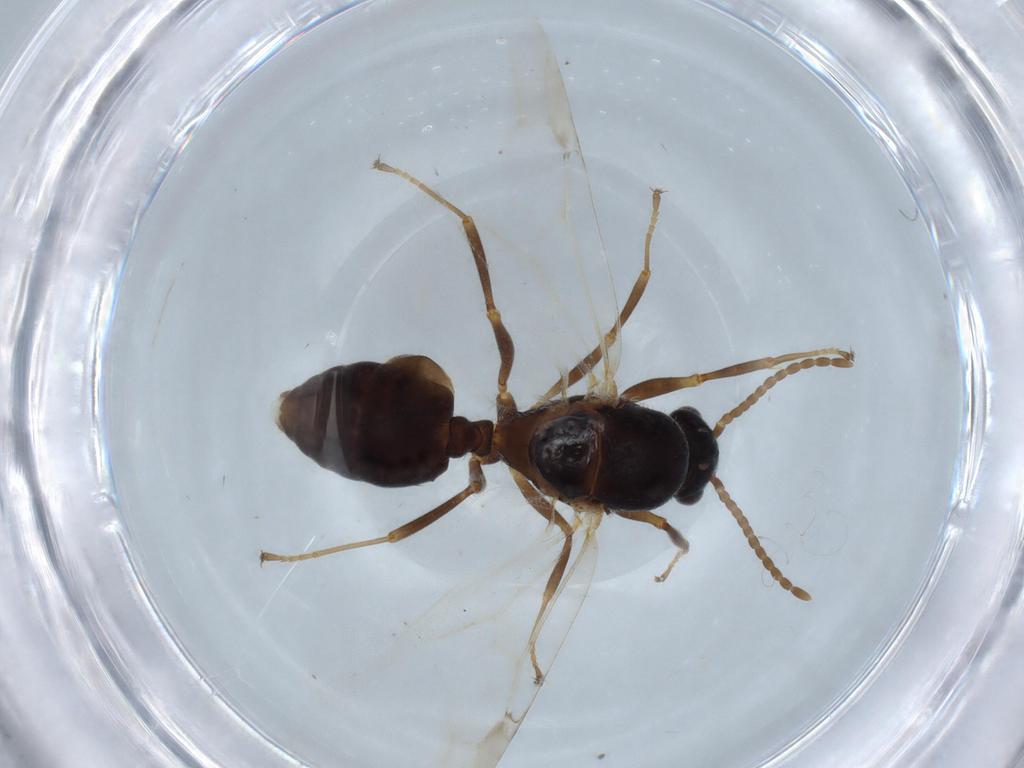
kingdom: Animalia
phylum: Arthropoda
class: Insecta
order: Hymenoptera
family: Formicidae
